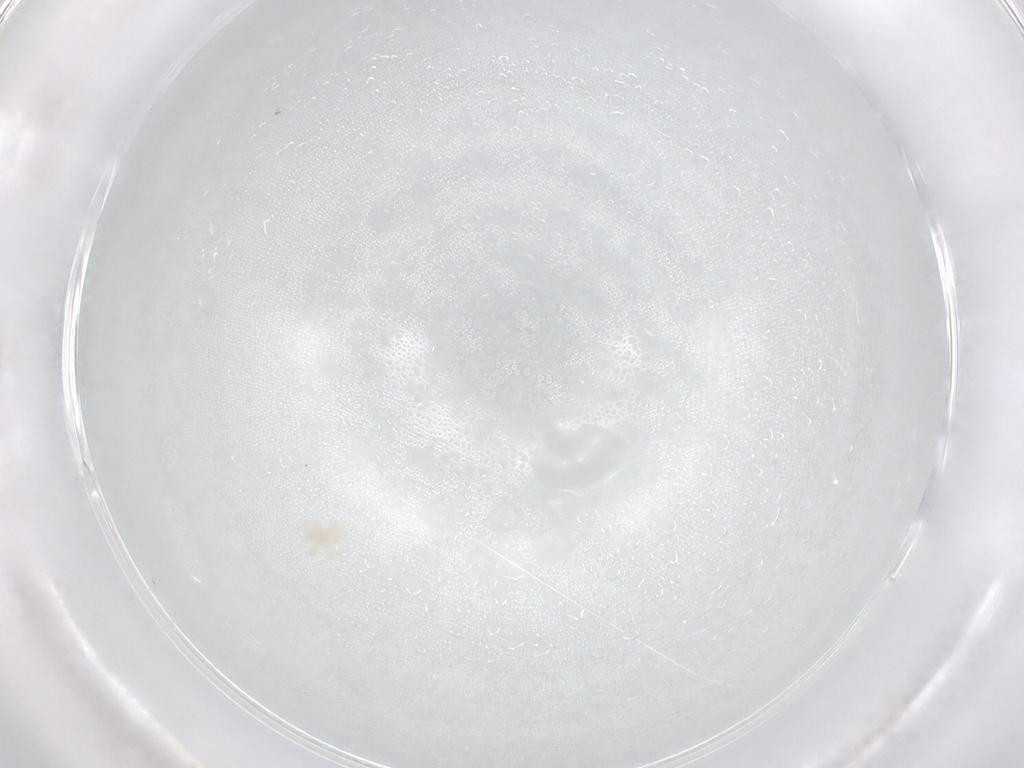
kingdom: Animalia
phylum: Arthropoda
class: Arachnida
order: Trombidiformes
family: Anystidae
